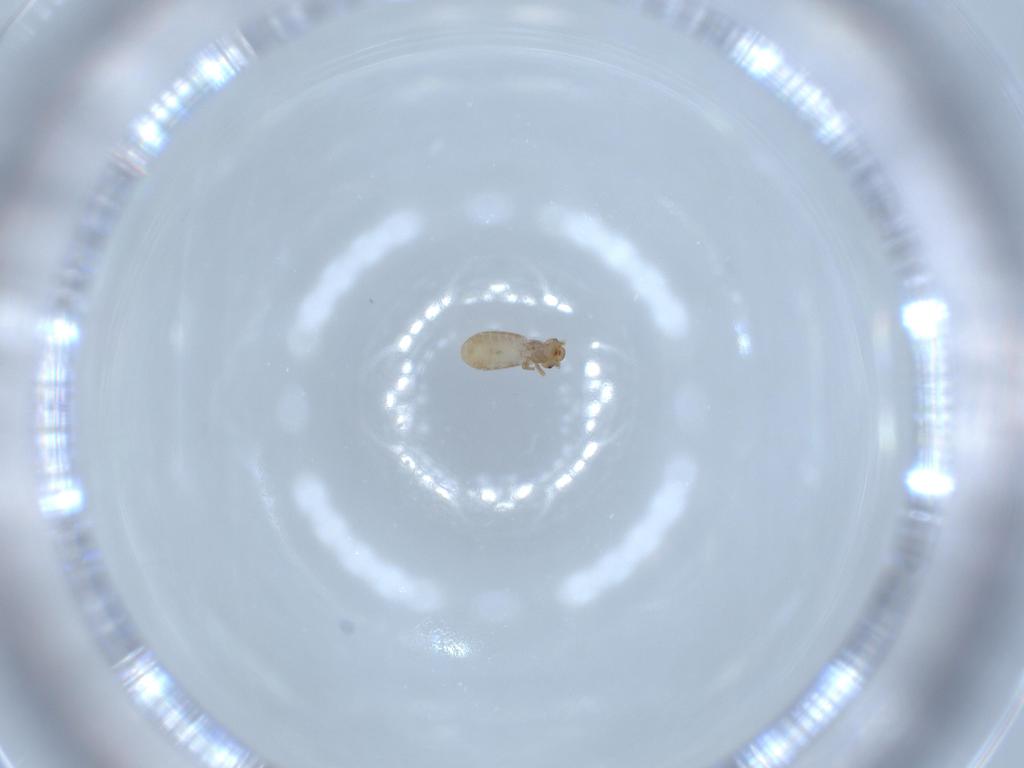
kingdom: Animalia
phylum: Arthropoda
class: Insecta
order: Psocodea
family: Liposcelididae
